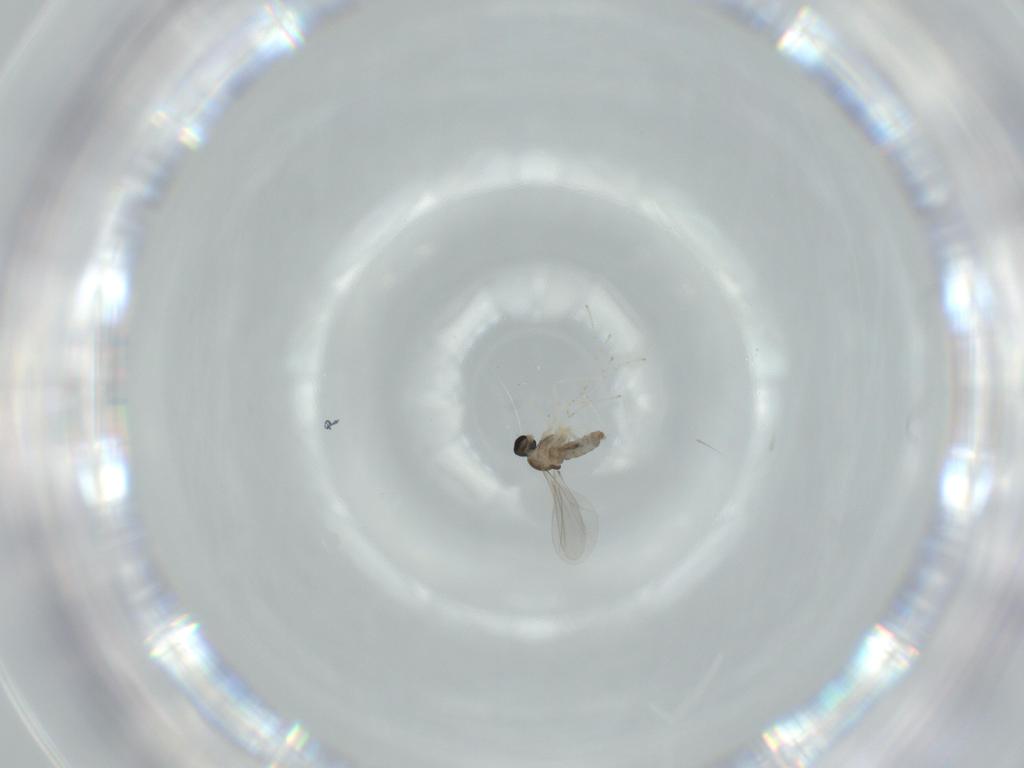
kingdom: Animalia
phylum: Arthropoda
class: Insecta
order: Diptera
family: Cecidomyiidae
